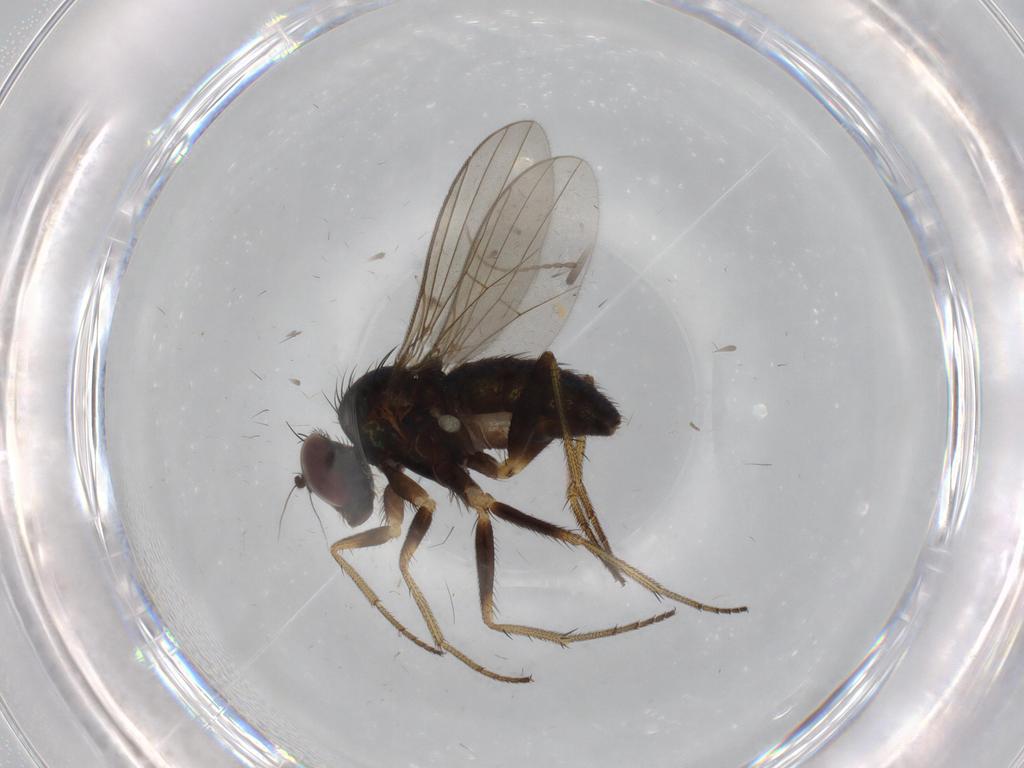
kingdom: Animalia
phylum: Arthropoda
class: Insecta
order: Diptera
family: Limoniidae
